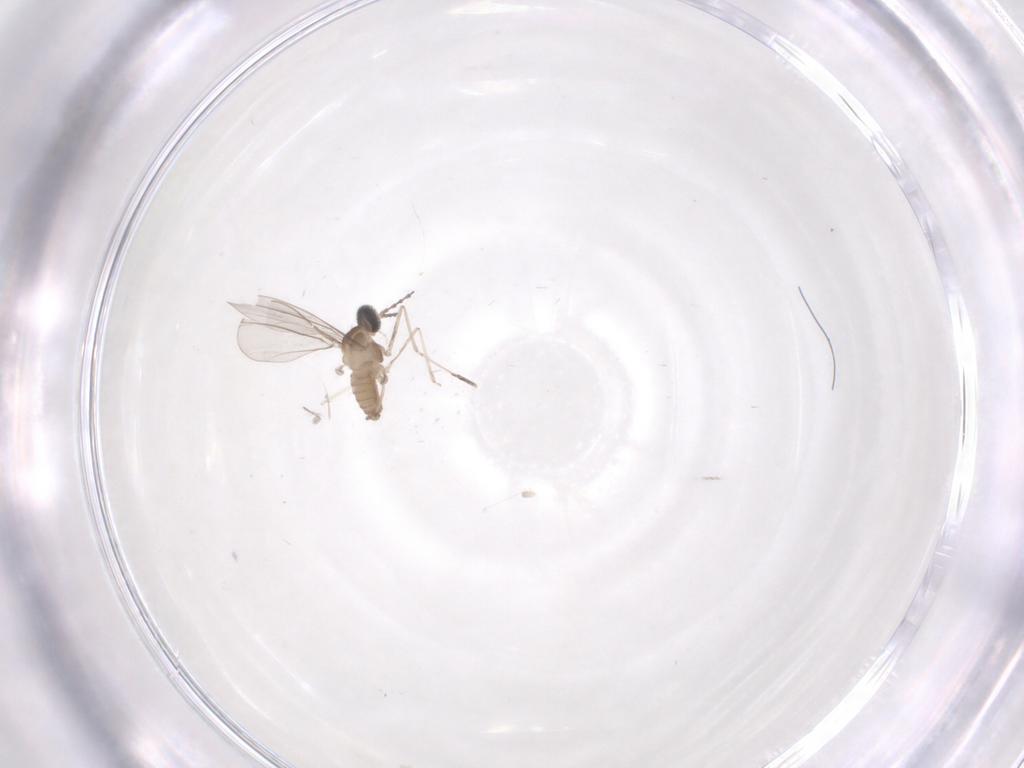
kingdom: Animalia
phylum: Arthropoda
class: Insecta
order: Diptera
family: Cecidomyiidae
